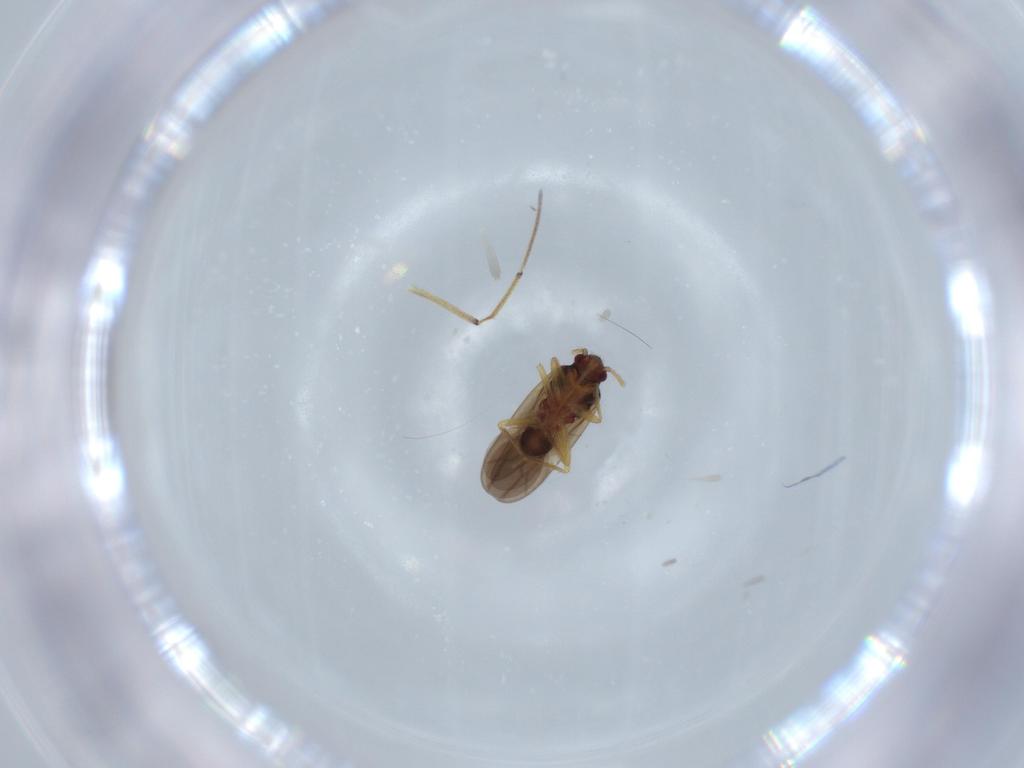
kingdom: Animalia
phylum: Arthropoda
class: Insecta
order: Hemiptera
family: Ceratocombidae
